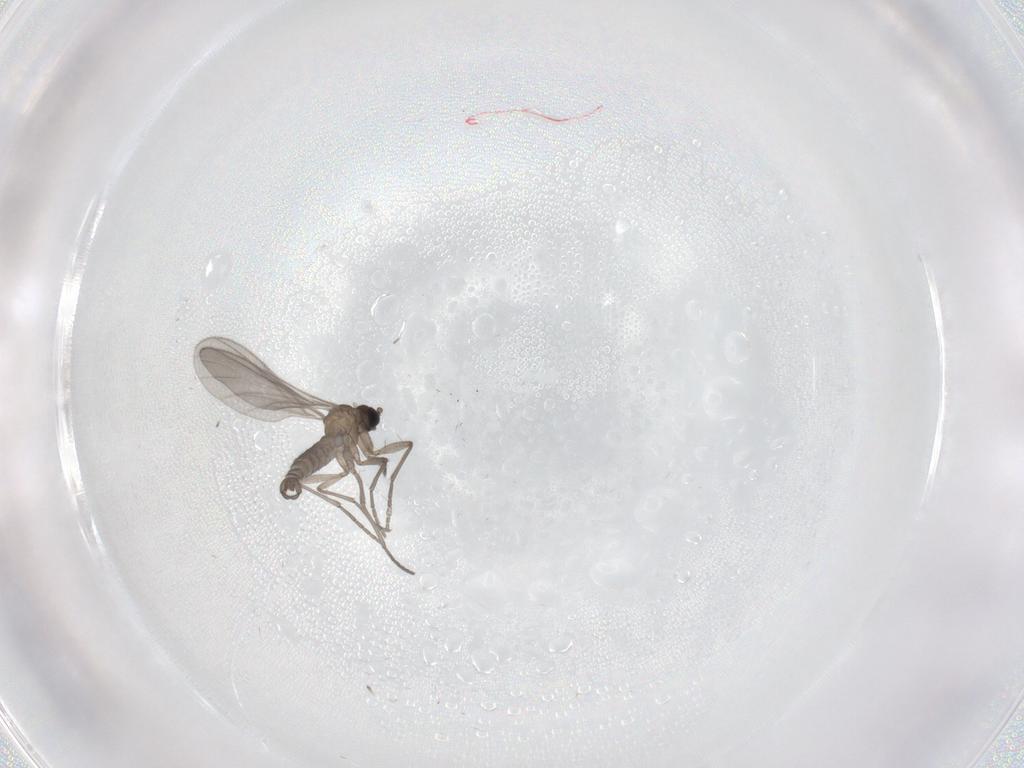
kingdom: Animalia
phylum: Arthropoda
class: Insecta
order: Diptera
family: Sciaridae
